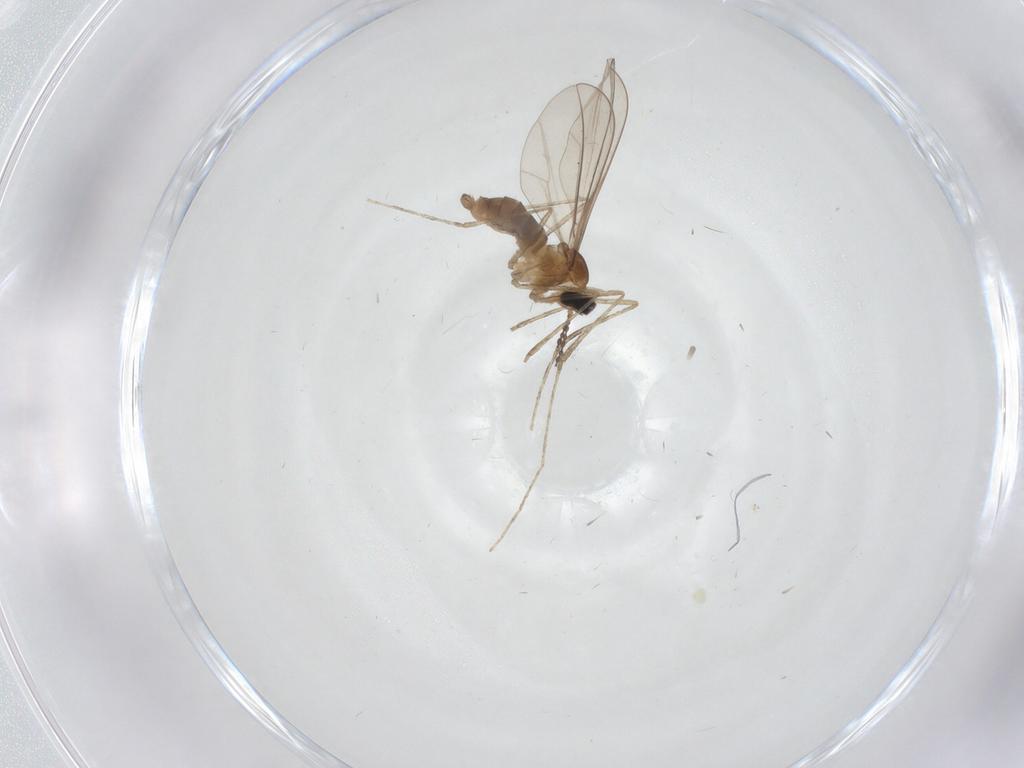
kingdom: Animalia
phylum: Arthropoda
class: Insecta
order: Diptera
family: Cecidomyiidae
